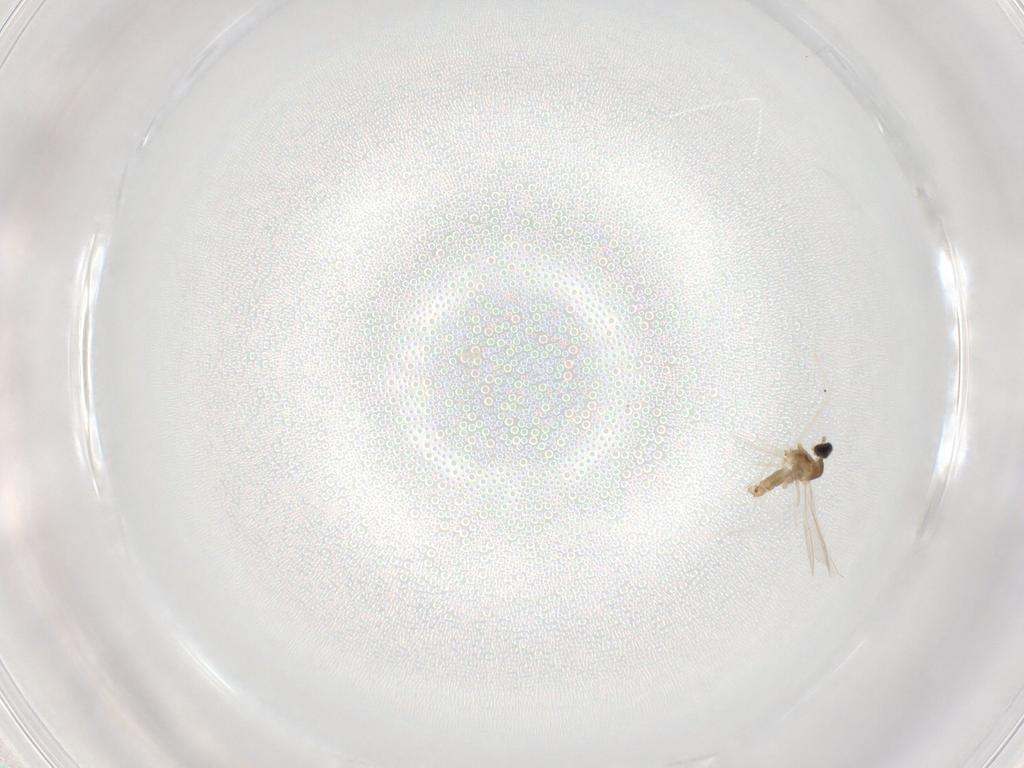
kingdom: Animalia
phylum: Arthropoda
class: Insecta
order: Diptera
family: Cecidomyiidae
